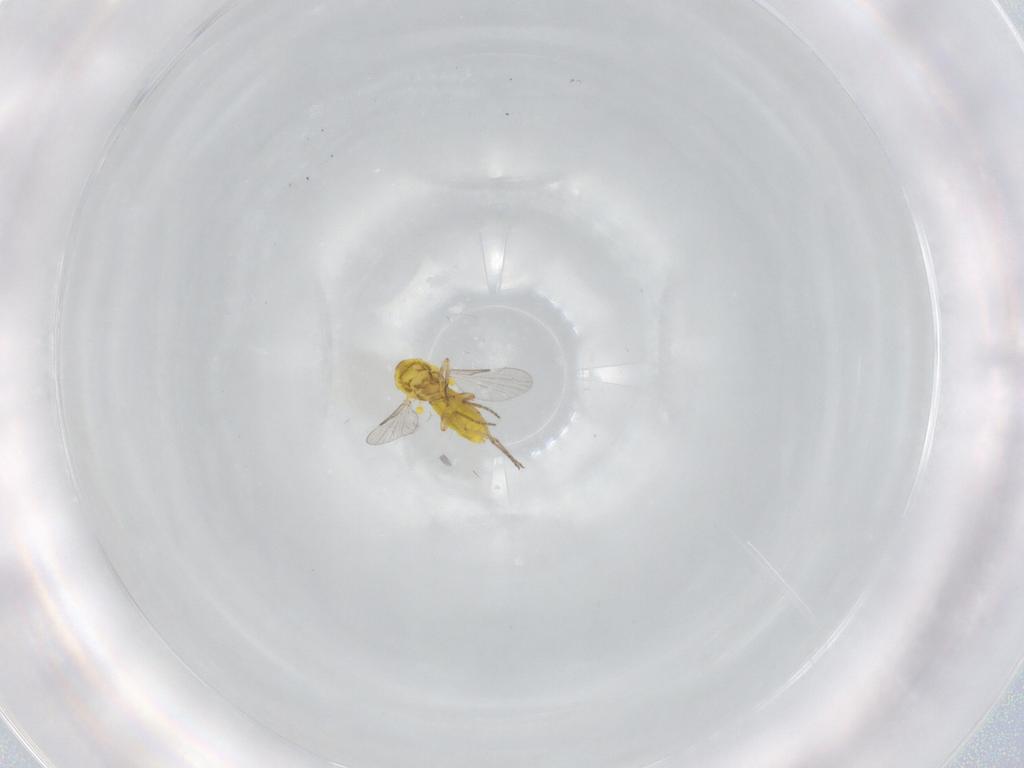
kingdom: Animalia
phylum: Arthropoda
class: Insecta
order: Diptera
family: Ceratopogonidae
